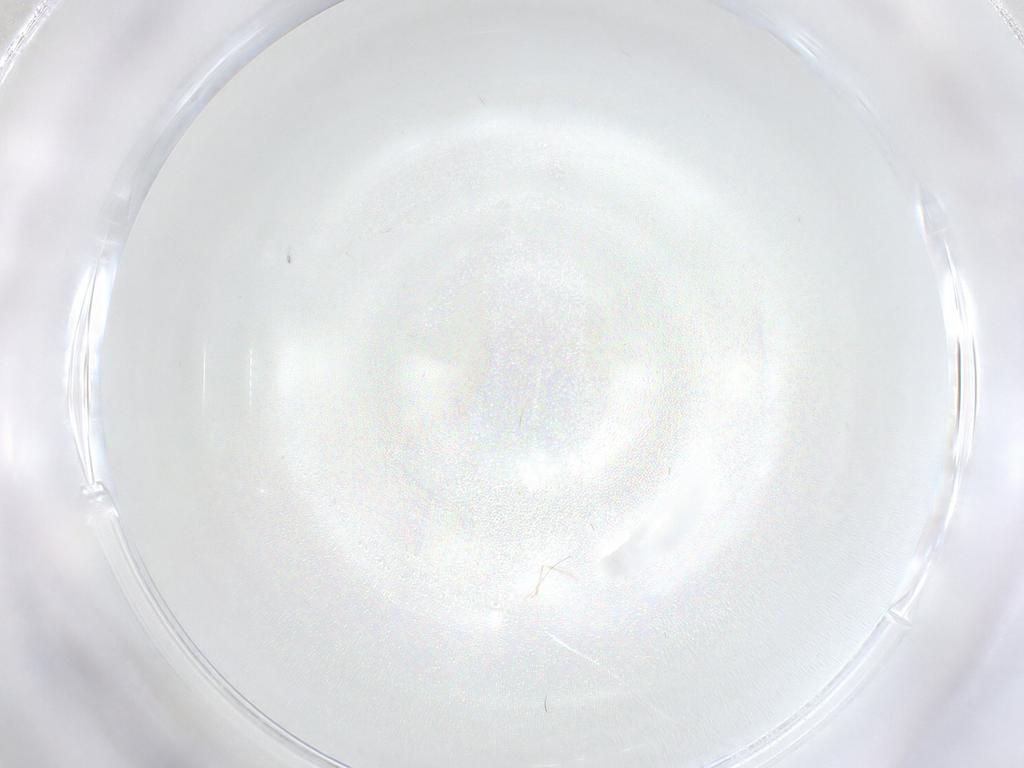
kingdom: Animalia
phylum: Arthropoda
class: Insecta
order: Diptera
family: Cecidomyiidae
